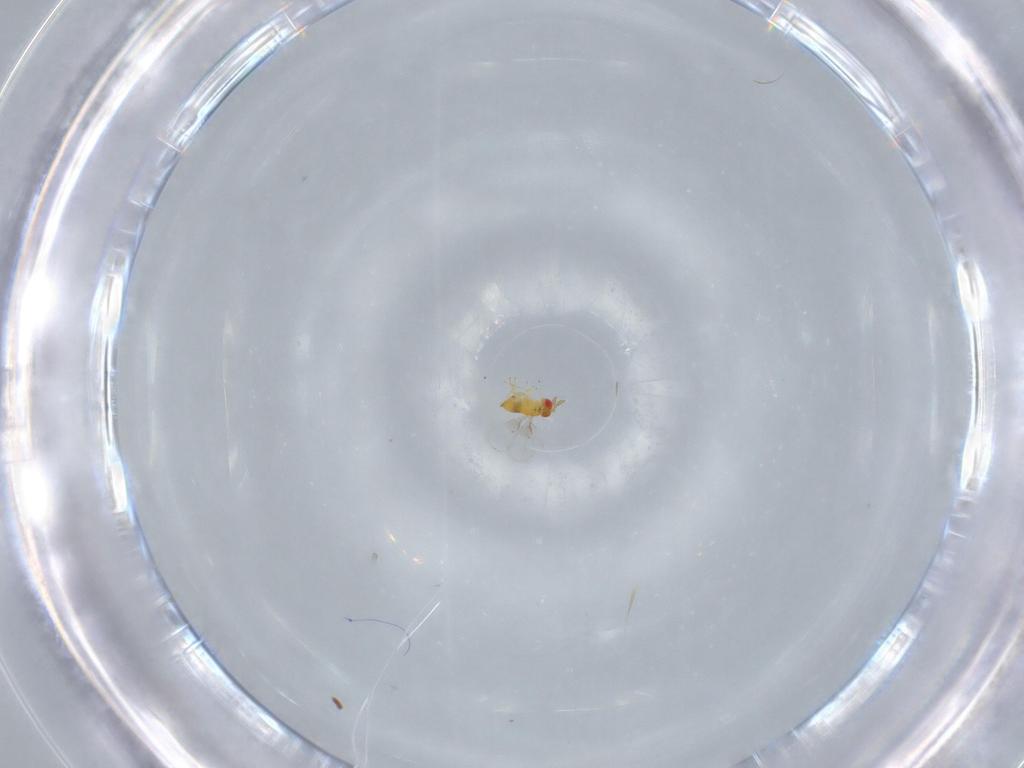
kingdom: Animalia
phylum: Arthropoda
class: Insecta
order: Hymenoptera
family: Trichogrammatidae
